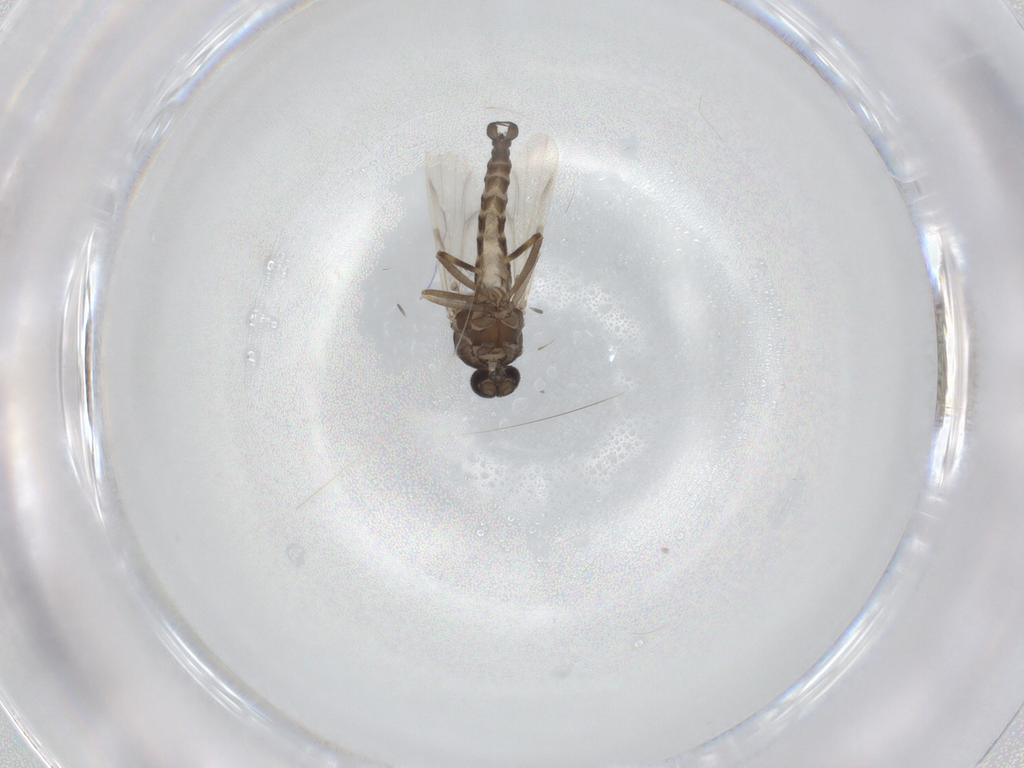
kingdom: Animalia
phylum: Arthropoda
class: Insecta
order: Diptera
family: Ceratopogonidae
